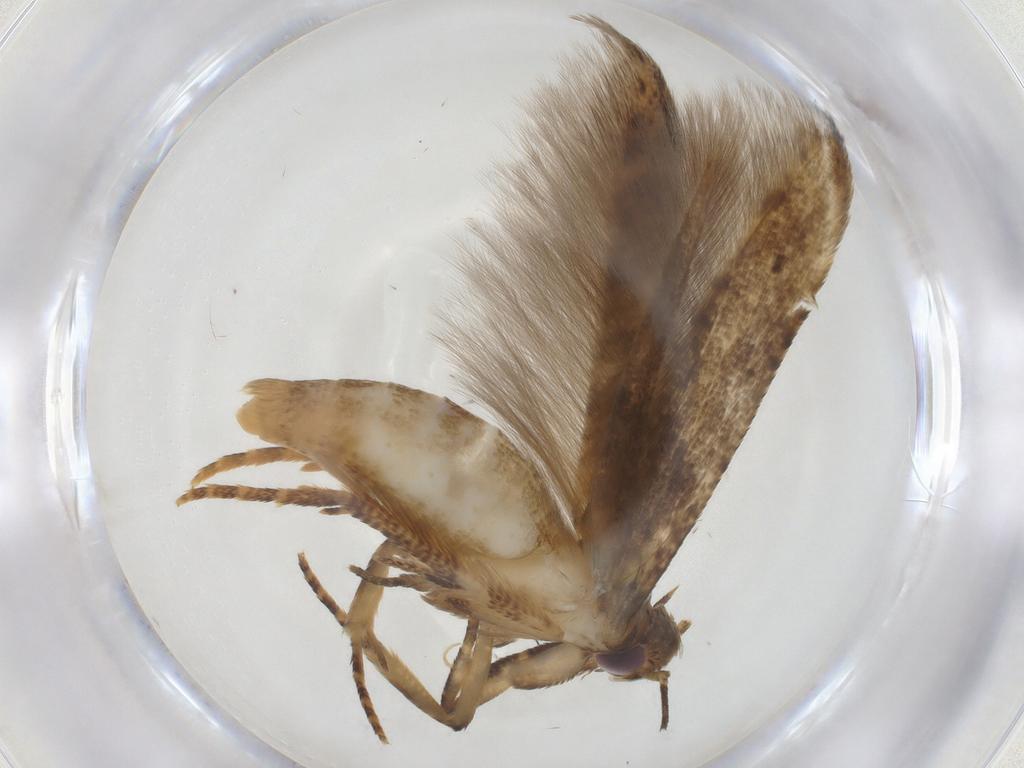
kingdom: Animalia
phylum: Arthropoda
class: Insecta
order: Lepidoptera
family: Cosmopterigidae
